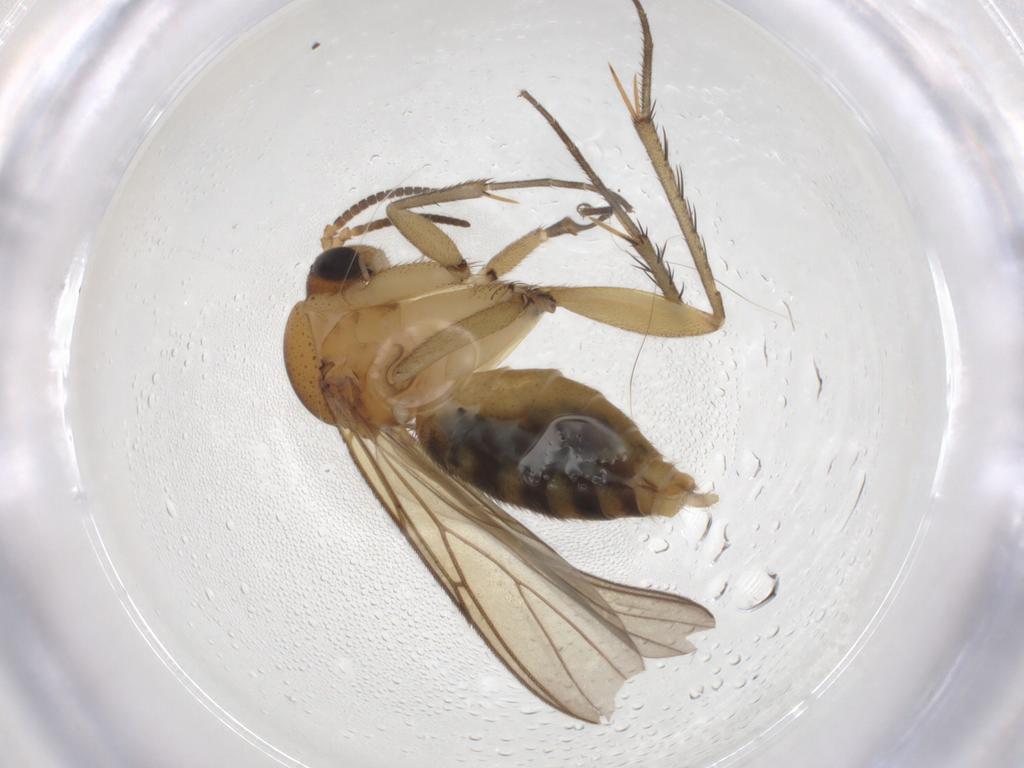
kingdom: Animalia
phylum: Arthropoda
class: Insecta
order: Diptera
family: Mycetophilidae
